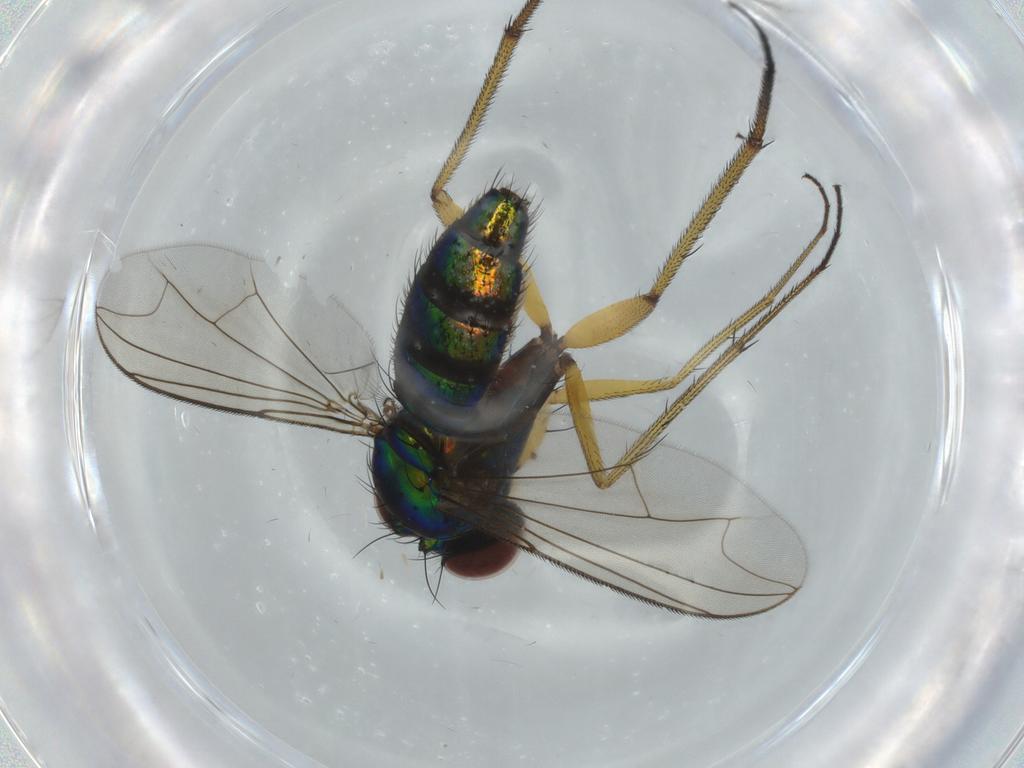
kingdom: Animalia
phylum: Arthropoda
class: Insecta
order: Diptera
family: Dolichopodidae
